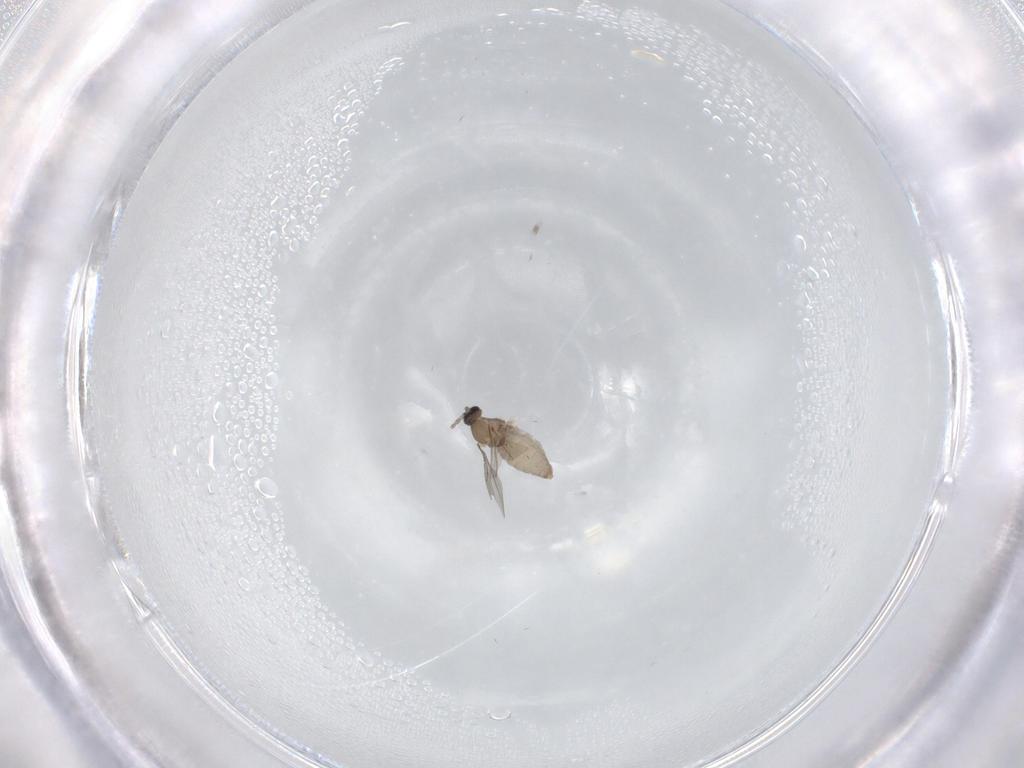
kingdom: Animalia
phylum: Arthropoda
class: Insecta
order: Diptera
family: Cecidomyiidae
